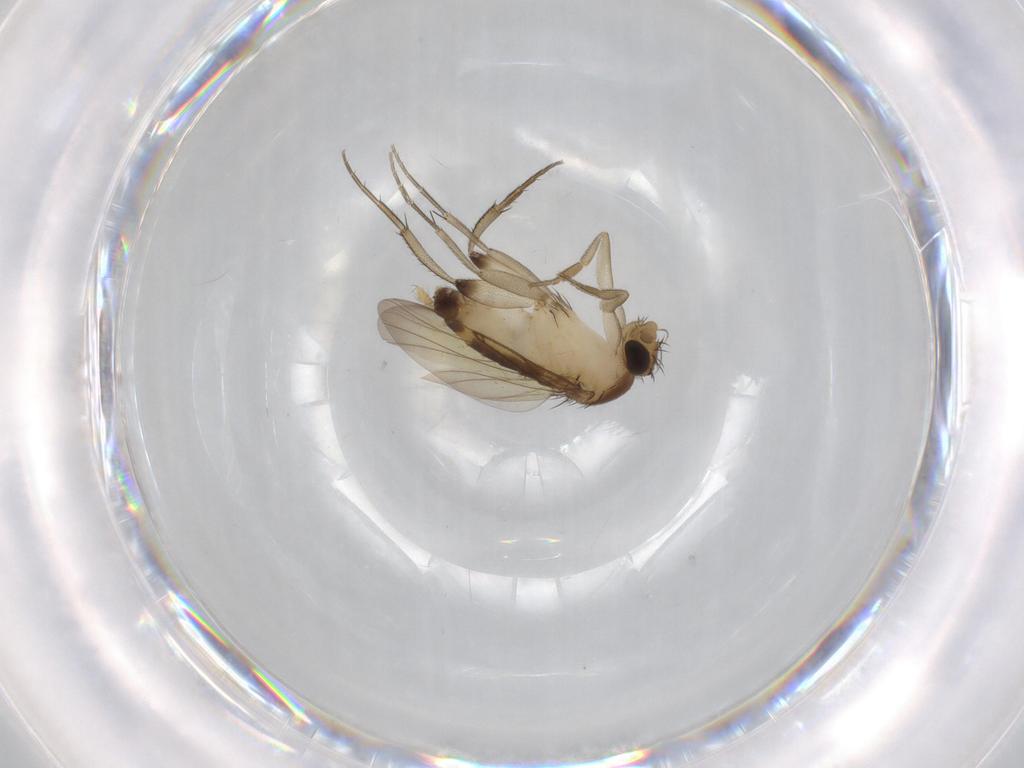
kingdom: Animalia
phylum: Arthropoda
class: Insecta
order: Diptera
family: Phoridae
